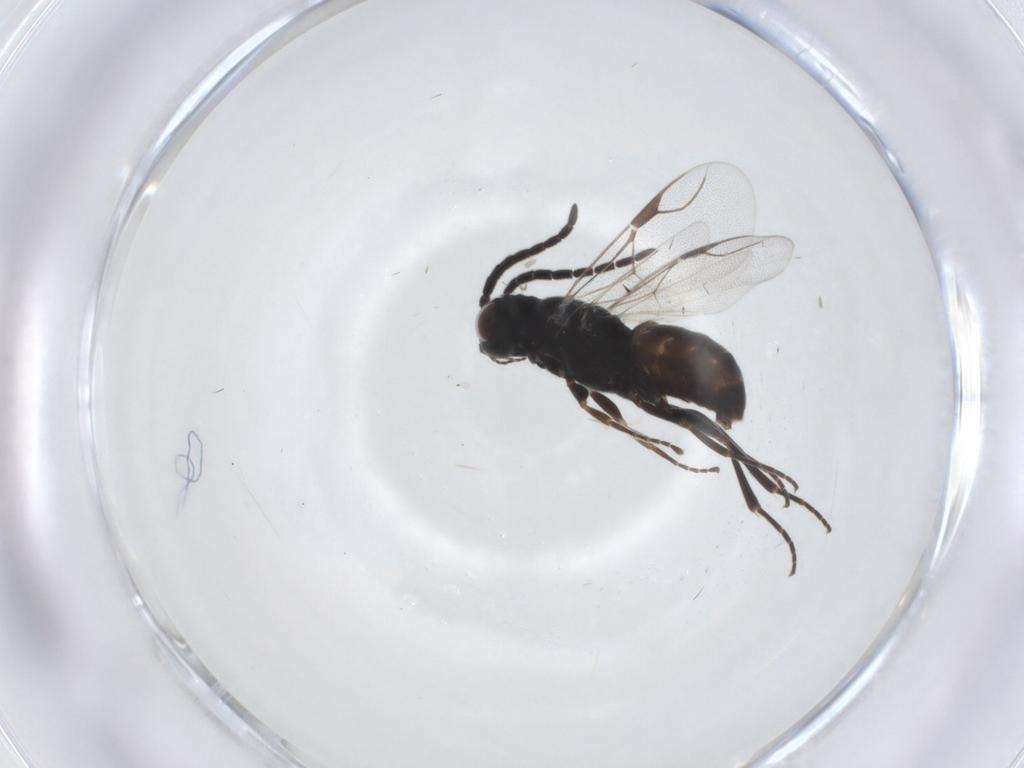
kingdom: Animalia
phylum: Arthropoda
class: Insecta
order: Hymenoptera
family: Dryinidae
